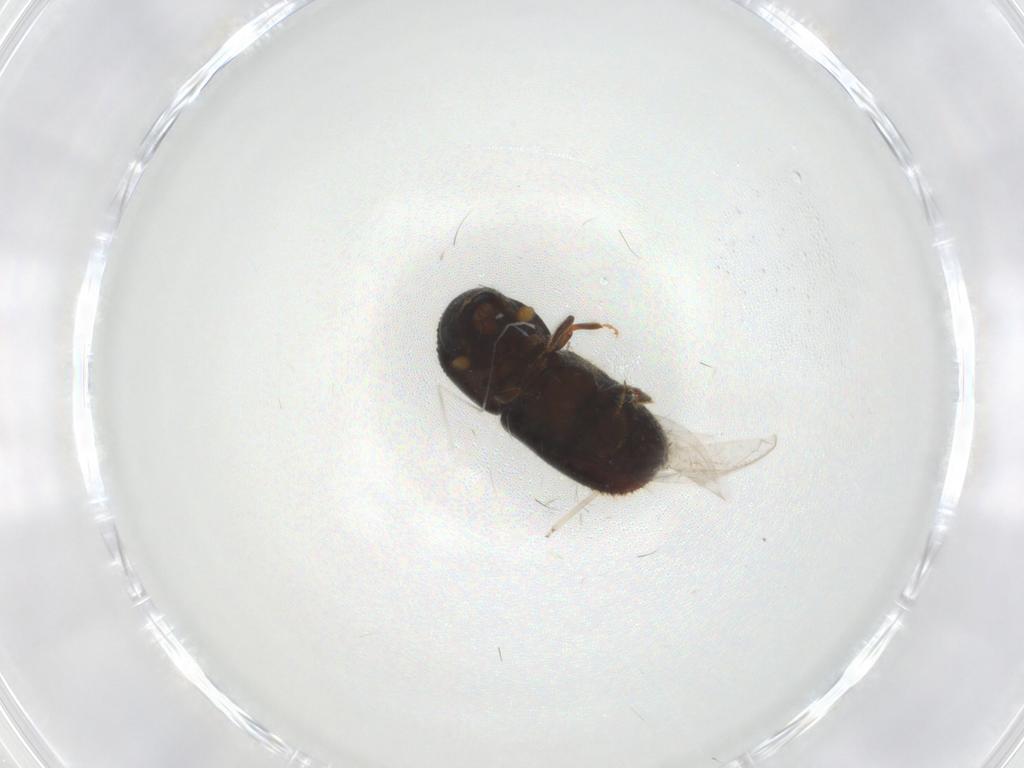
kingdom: Animalia
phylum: Arthropoda
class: Insecta
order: Coleoptera
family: Curculionidae
